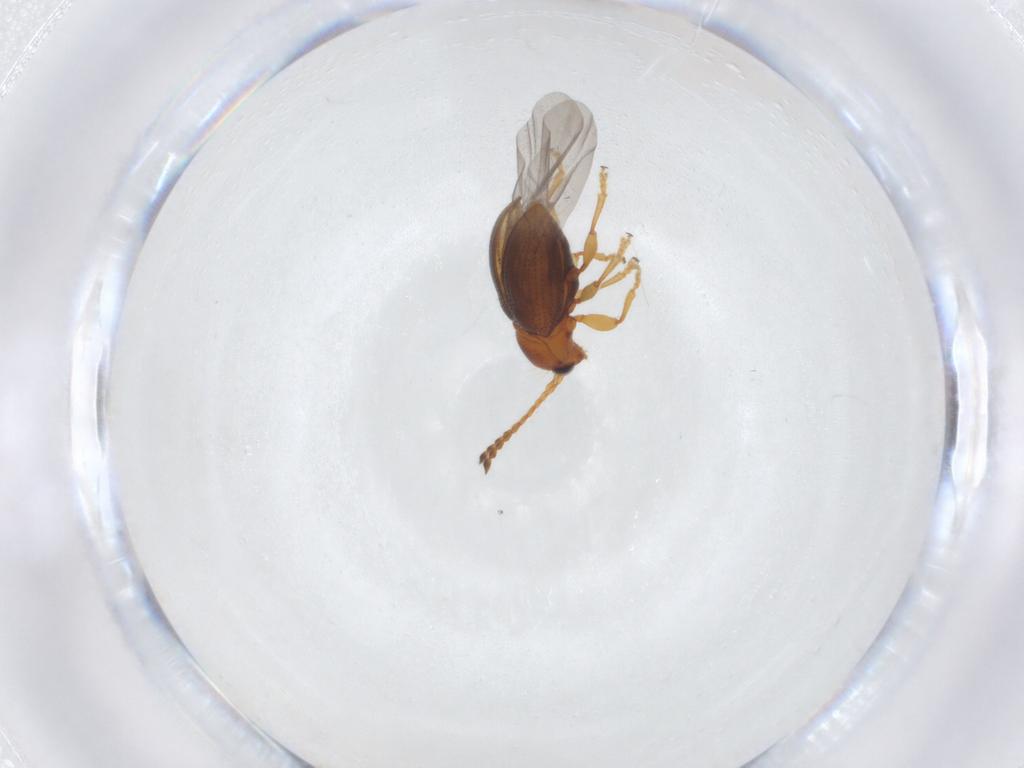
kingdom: Animalia
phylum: Arthropoda
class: Insecta
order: Coleoptera
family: Chrysomelidae
